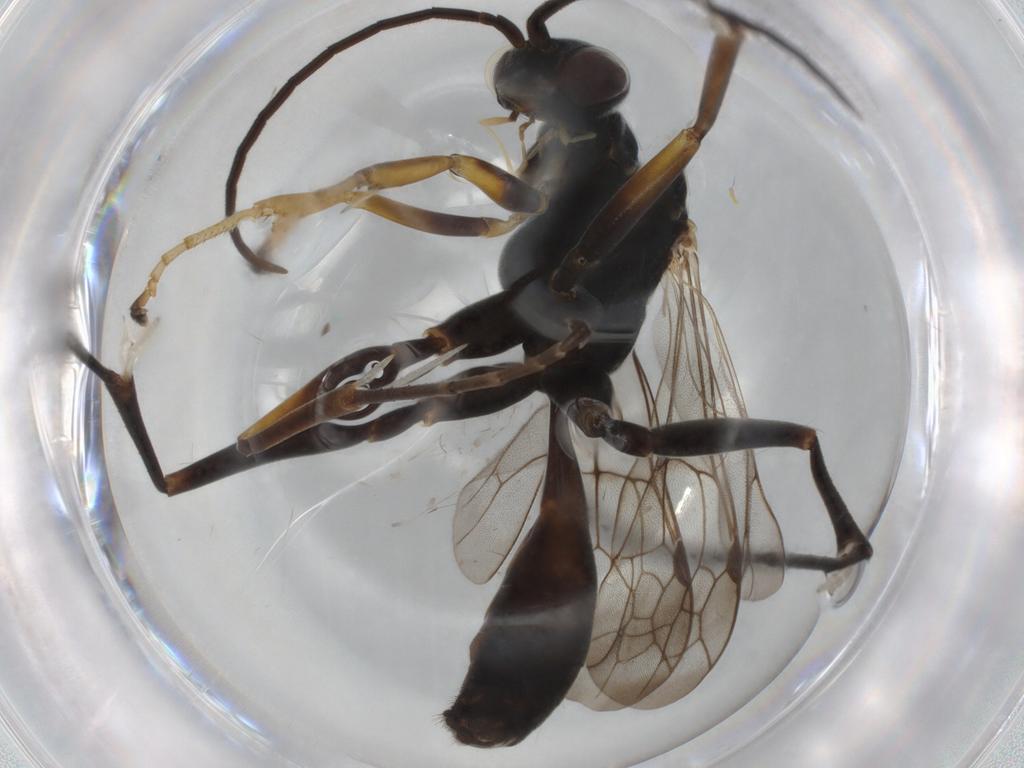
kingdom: Animalia
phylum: Arthropoda
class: Insecta
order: Hymenoptera
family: Pompilidae
